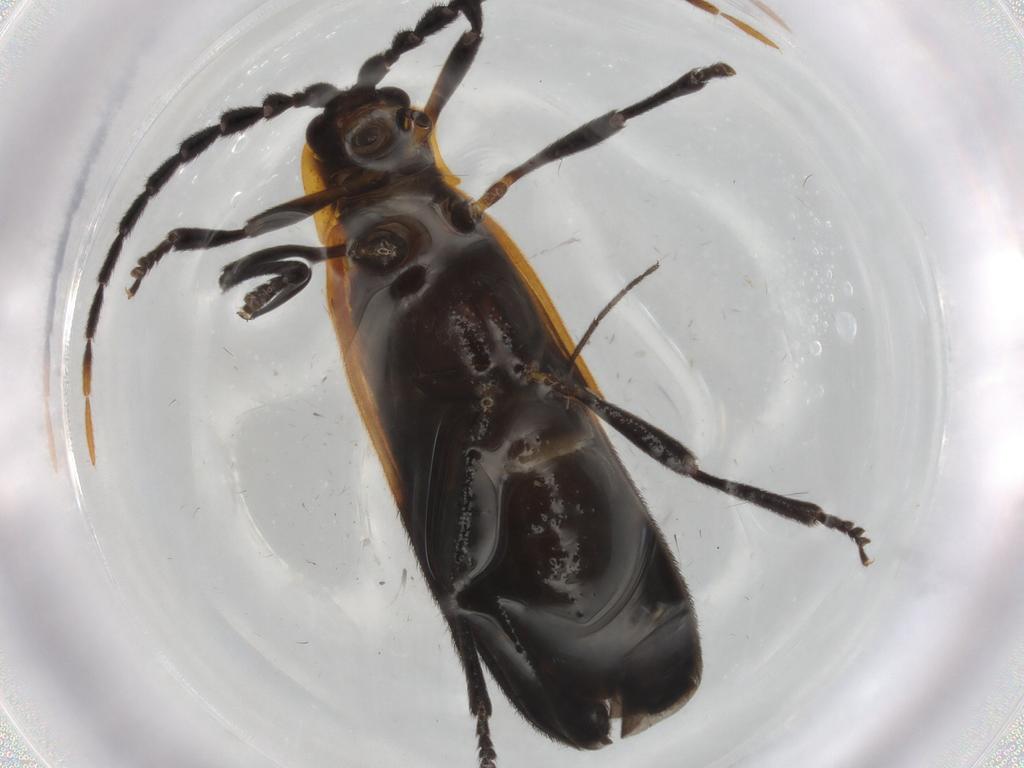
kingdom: Animalia
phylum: Arthropoda
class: Insecta
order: Coleoptera
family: Lycidae
